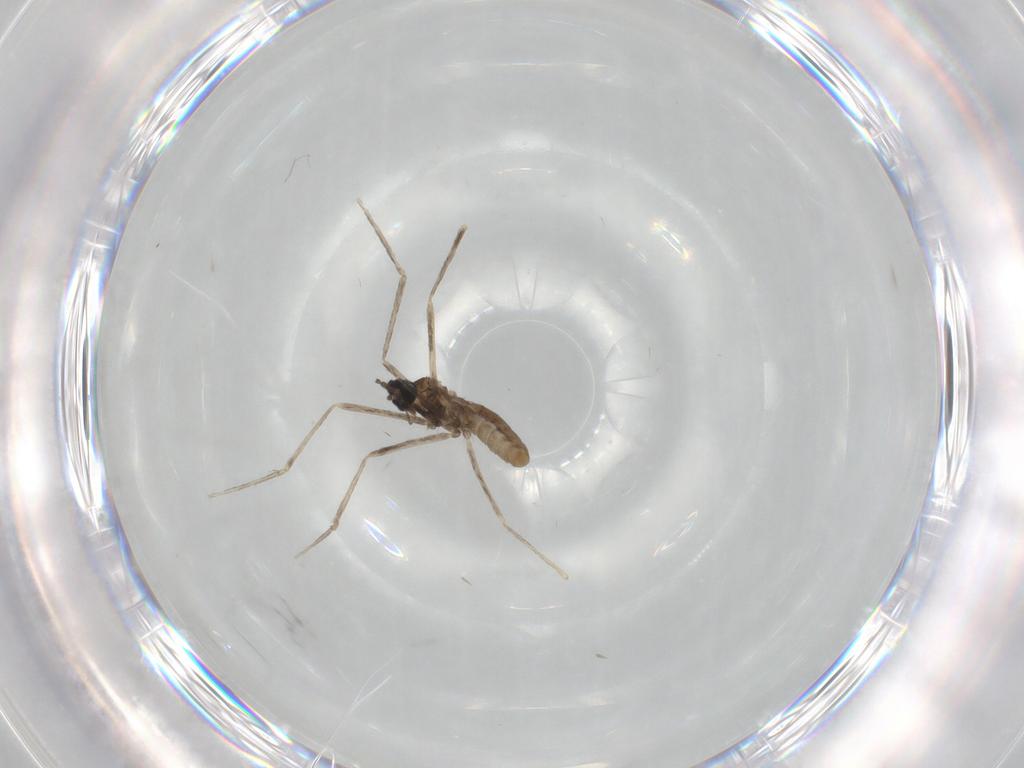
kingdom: Animalia
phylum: Arthropoda
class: Insecta
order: Diptera
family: Cecidomyiidae
